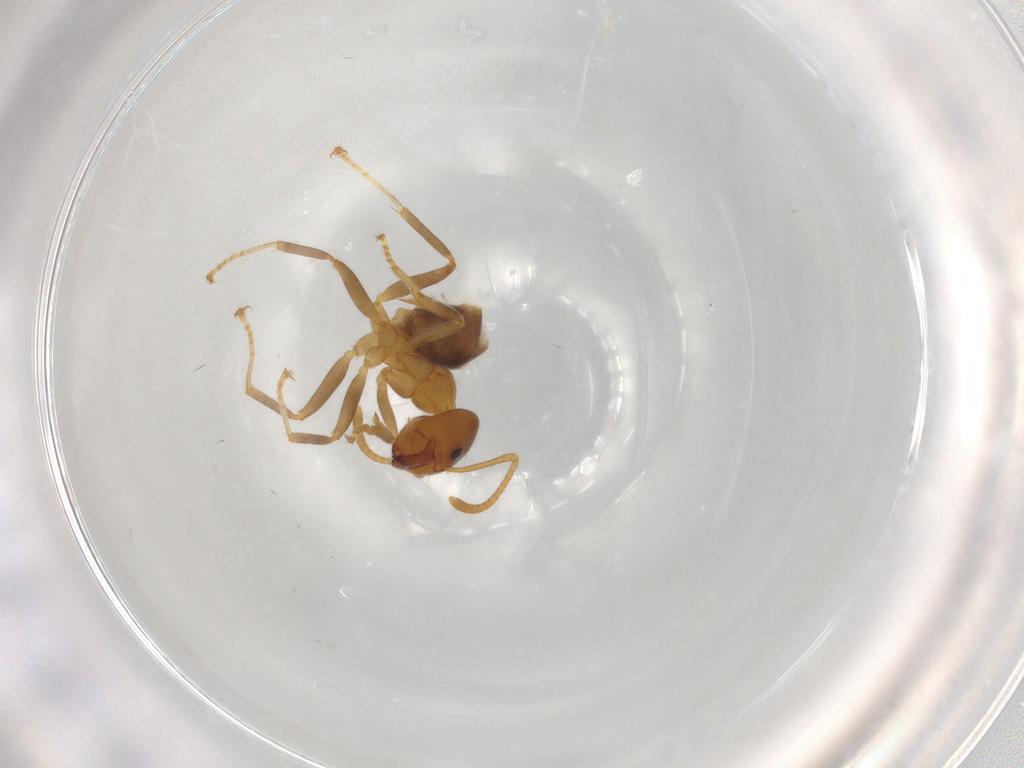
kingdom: Animalia
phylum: Arthropoda
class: Insecta
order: Hymenoptera
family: Formicidae
